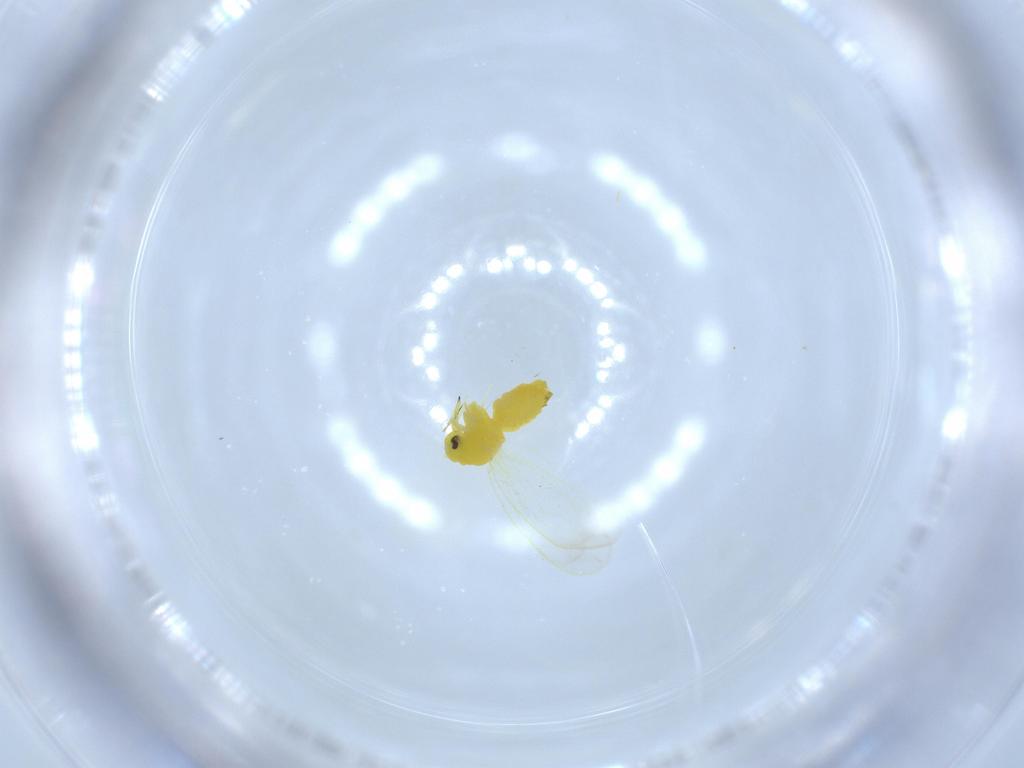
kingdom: Animalia
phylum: Arthropoda
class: Insecta
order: Hemiptera
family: Aleyrodidae
